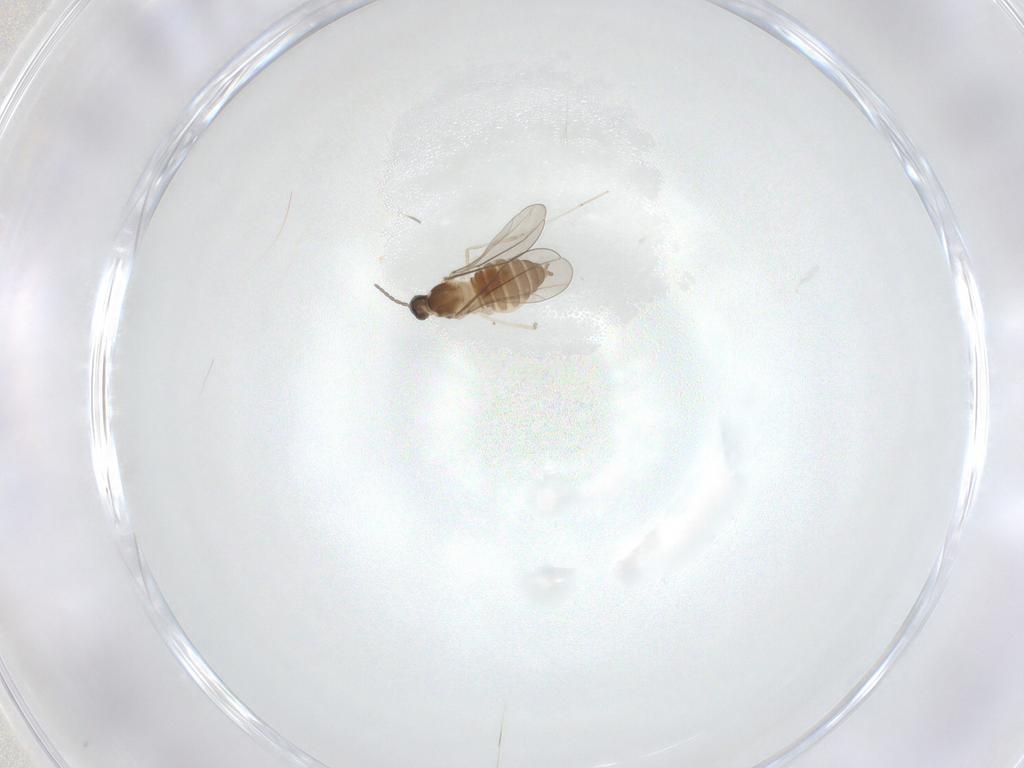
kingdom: Animalia
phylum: Arthropoda
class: Insecta
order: Diptera
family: Cecidomyiidae
